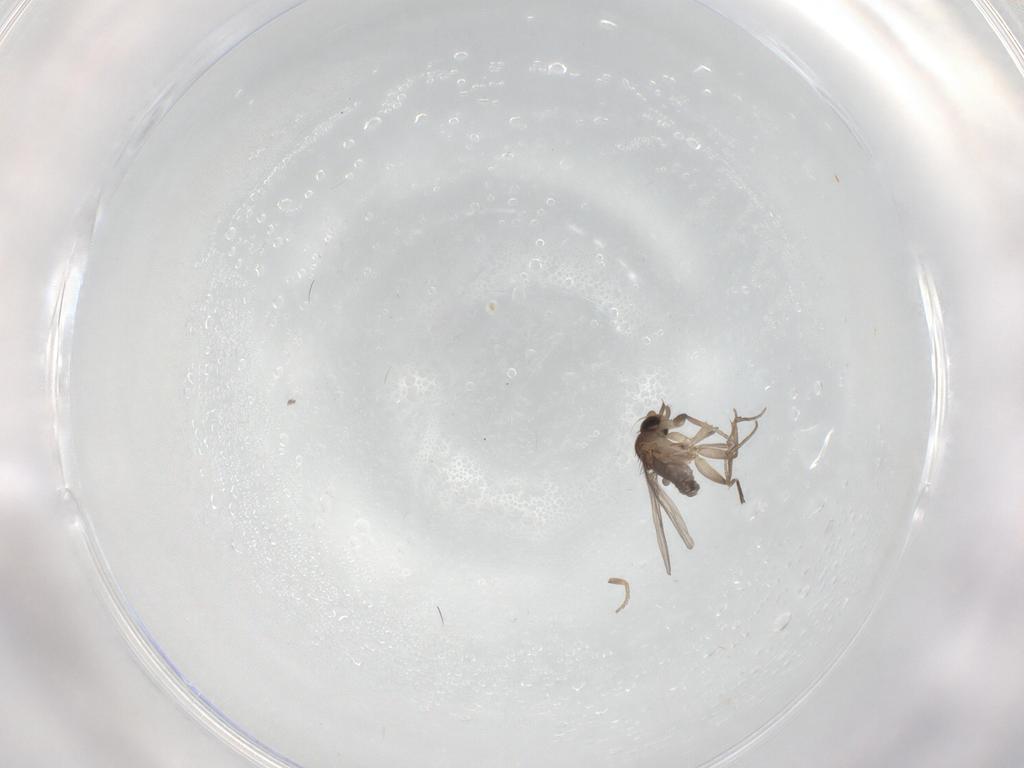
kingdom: Animalia
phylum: Arthropoda
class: Insecta
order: Diptera
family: Phoridae
